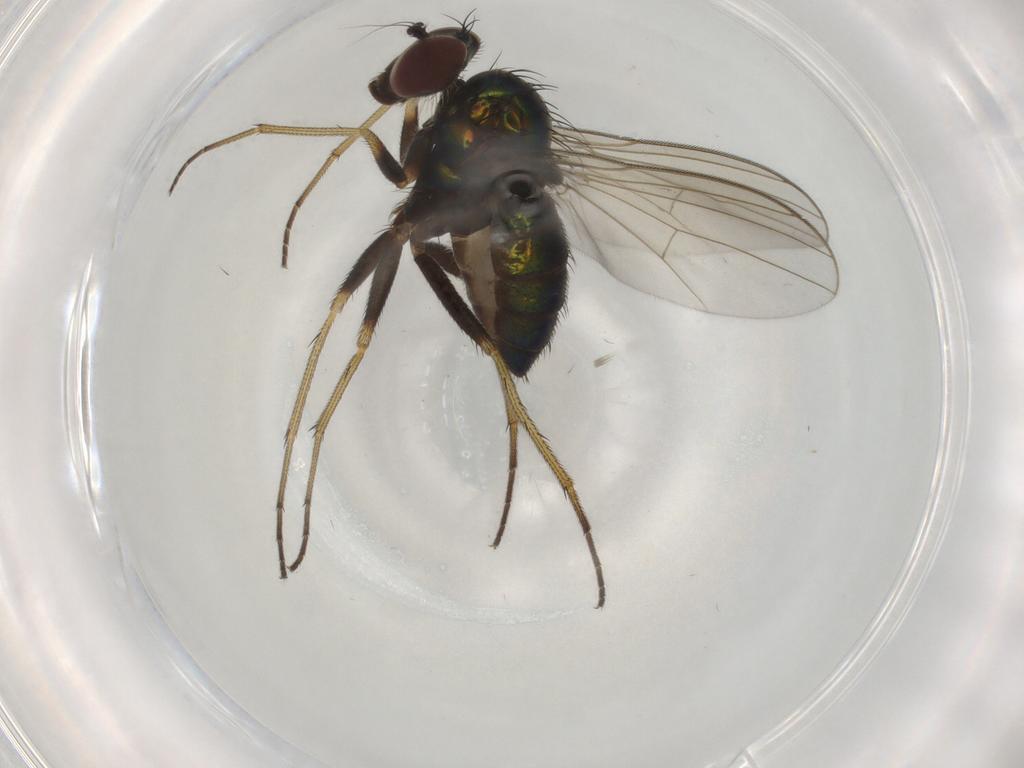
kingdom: Animalia
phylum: Arthropoda
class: Insecta
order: Diptera
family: Dolichopodidae
